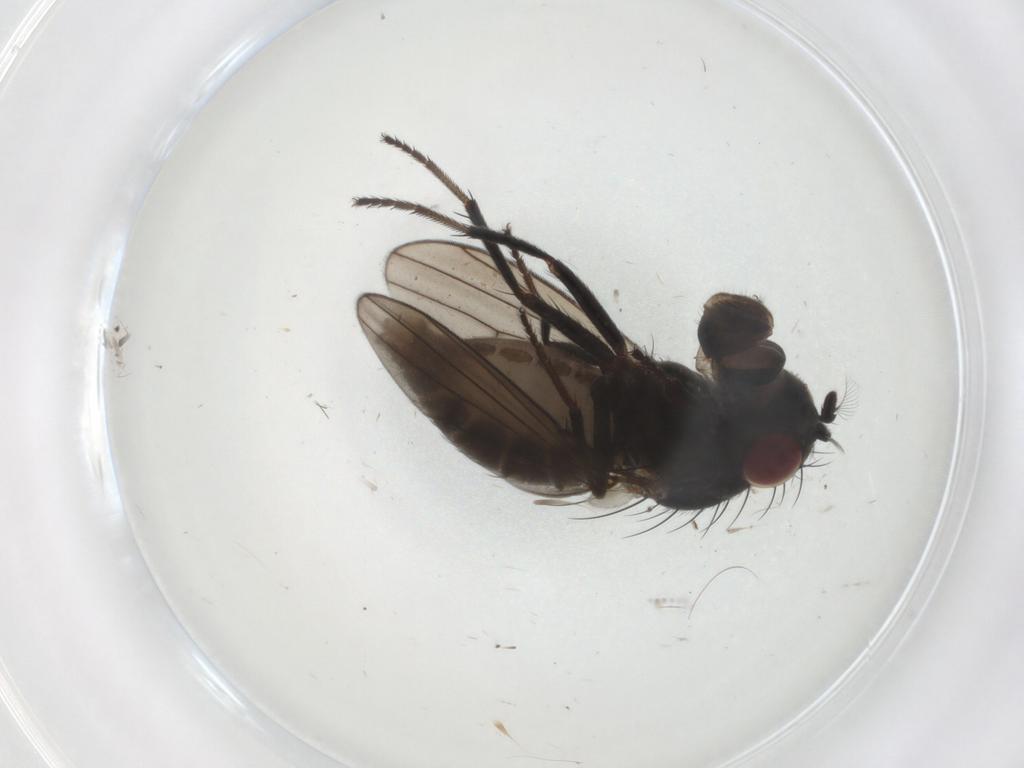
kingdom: Animalia
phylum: Arthropoda
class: Insecta
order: Diptera
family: Ephydridae
